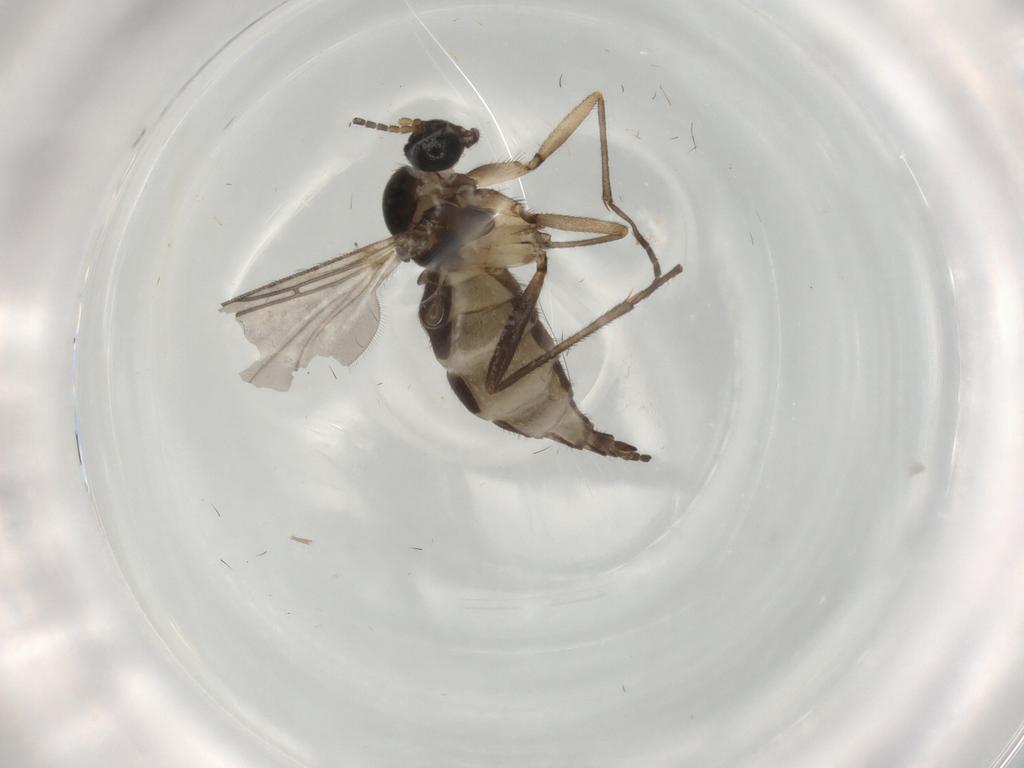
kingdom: Animalia
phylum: Arthropoda
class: Insecta
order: Diptera
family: Sciaridae
